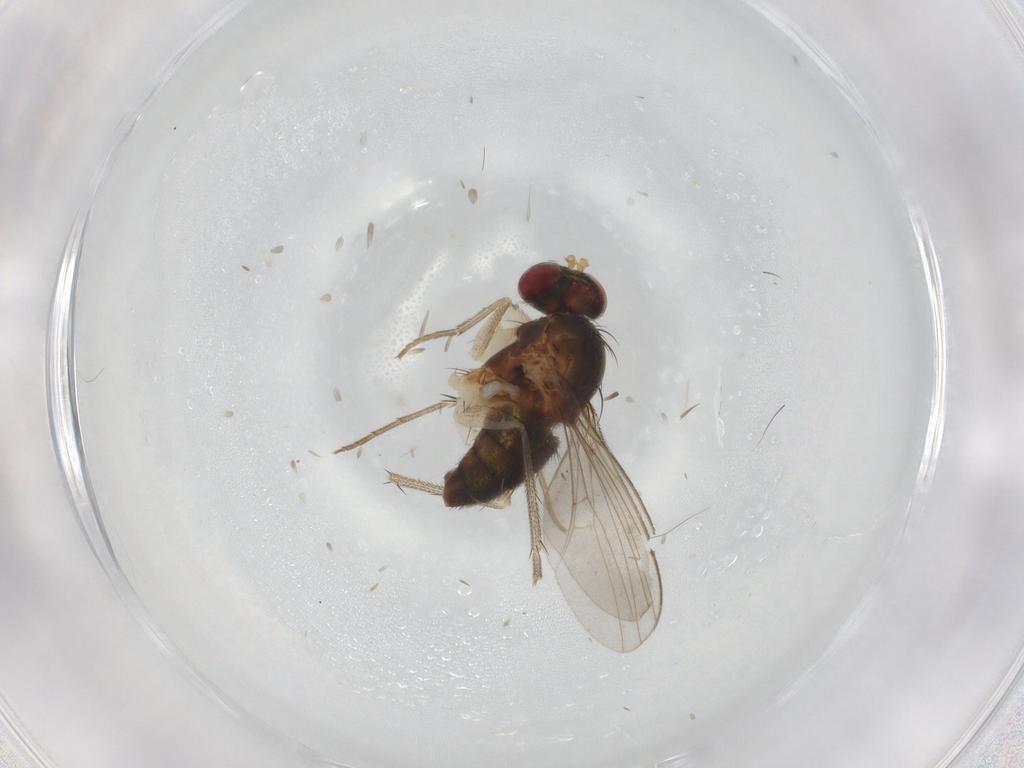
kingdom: Animalia
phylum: Arthropoda
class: Insecta
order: Diptera
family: Dolichopodidae
